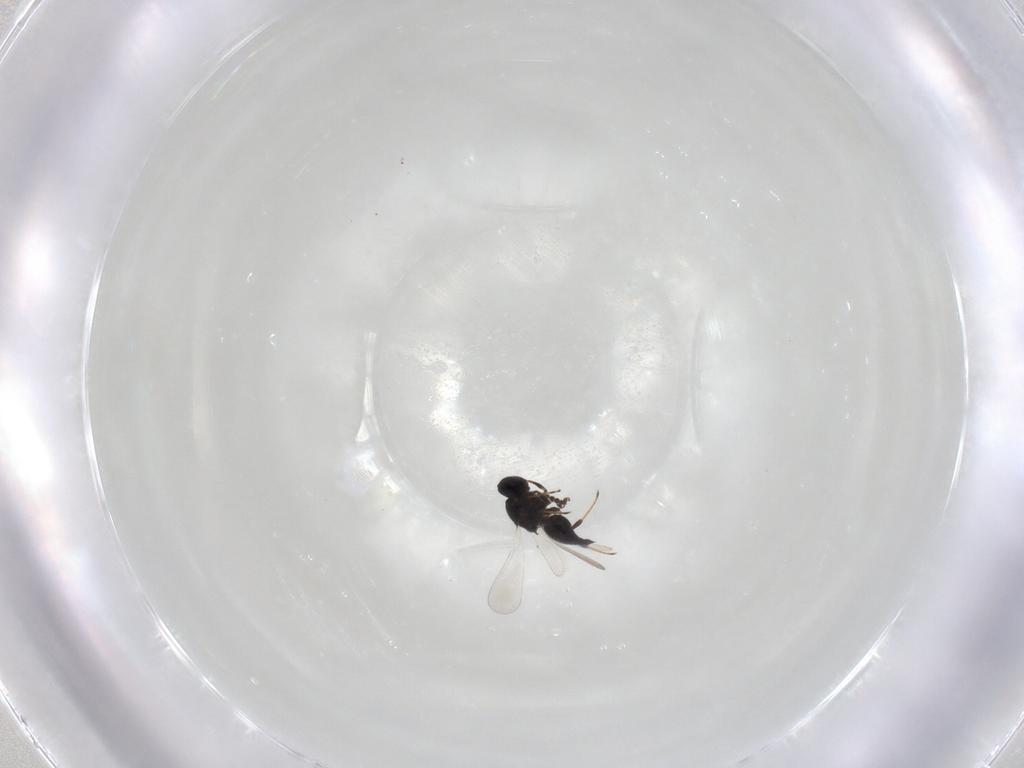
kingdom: Animalia
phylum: Arthropoda
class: Insecta
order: Hymenoptera
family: Platygastridae
